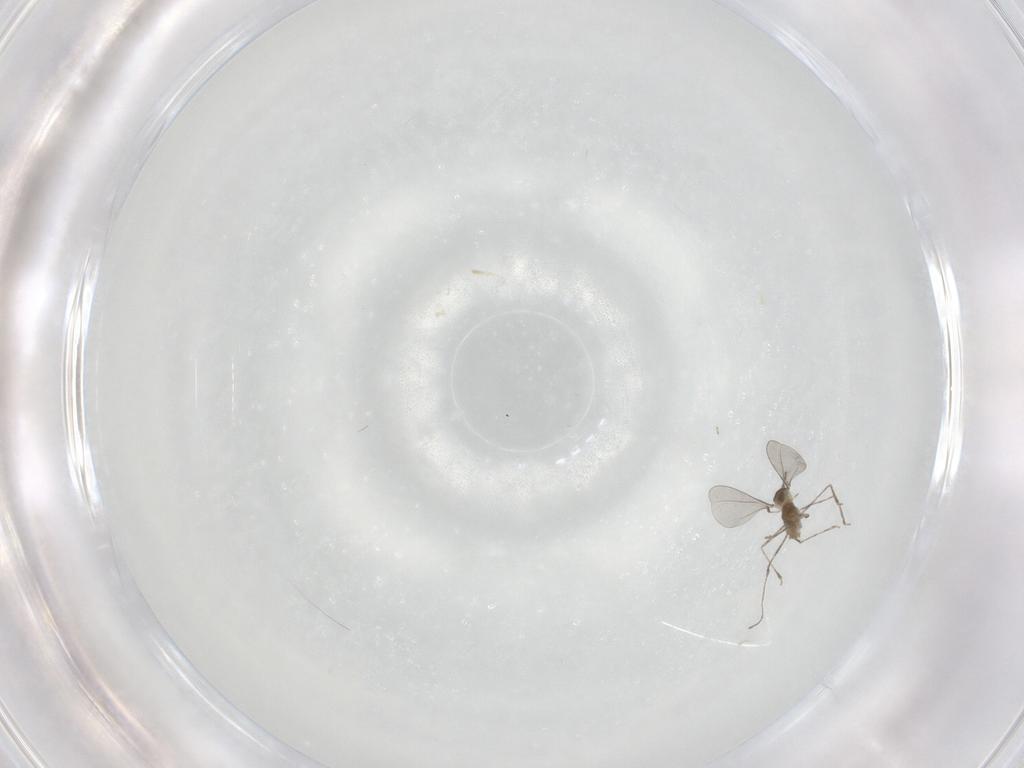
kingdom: Animalia
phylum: Arthropoda
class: Insecta
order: Diptera
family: Cecidomyiidae
